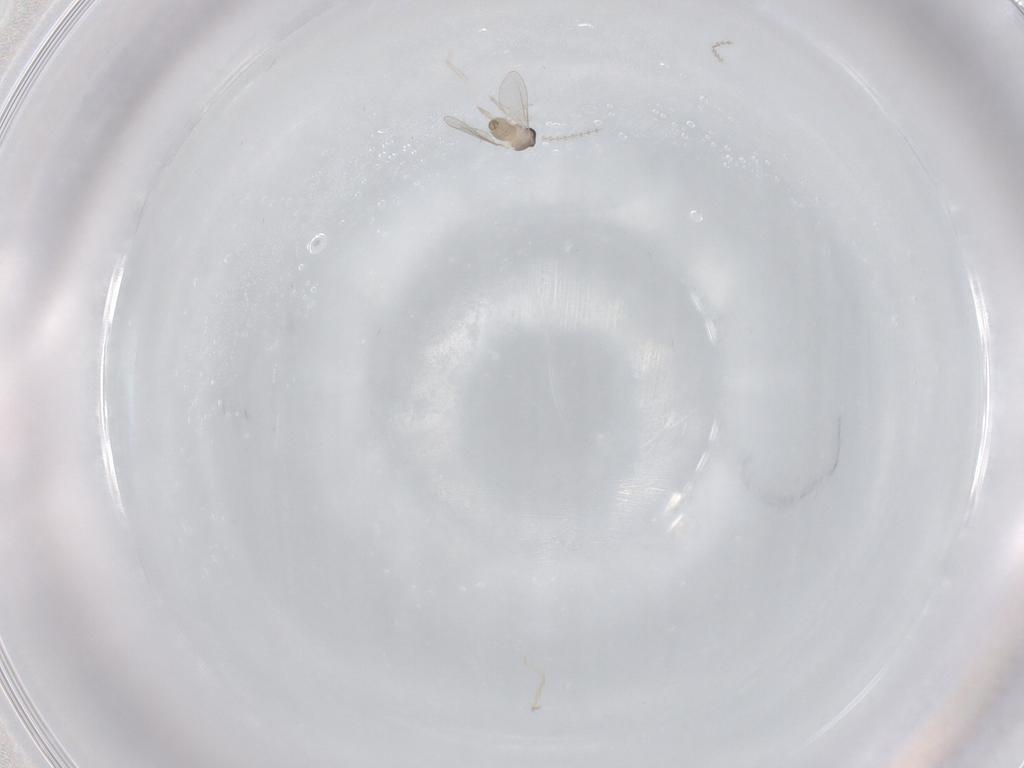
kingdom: Animalia
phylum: Arthropoda
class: Insecta
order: Diptera
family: Cecidomyiidae
